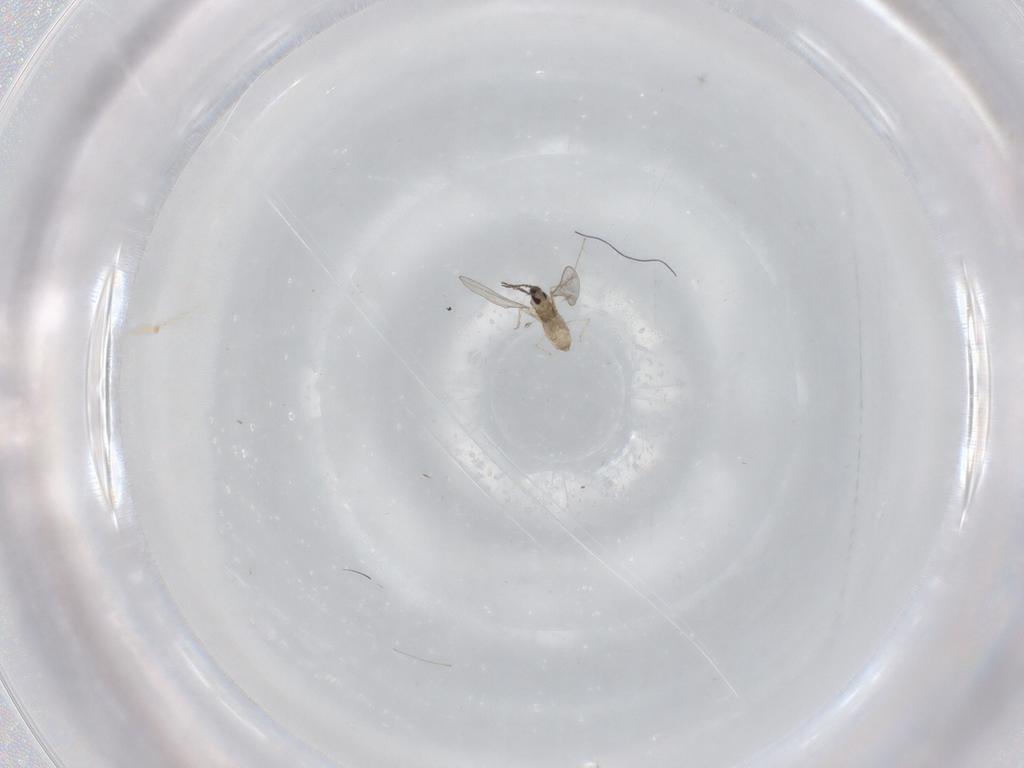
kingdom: Animalia
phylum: Arthropoda
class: Insecta
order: Diptera
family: Cecidomyiidae
